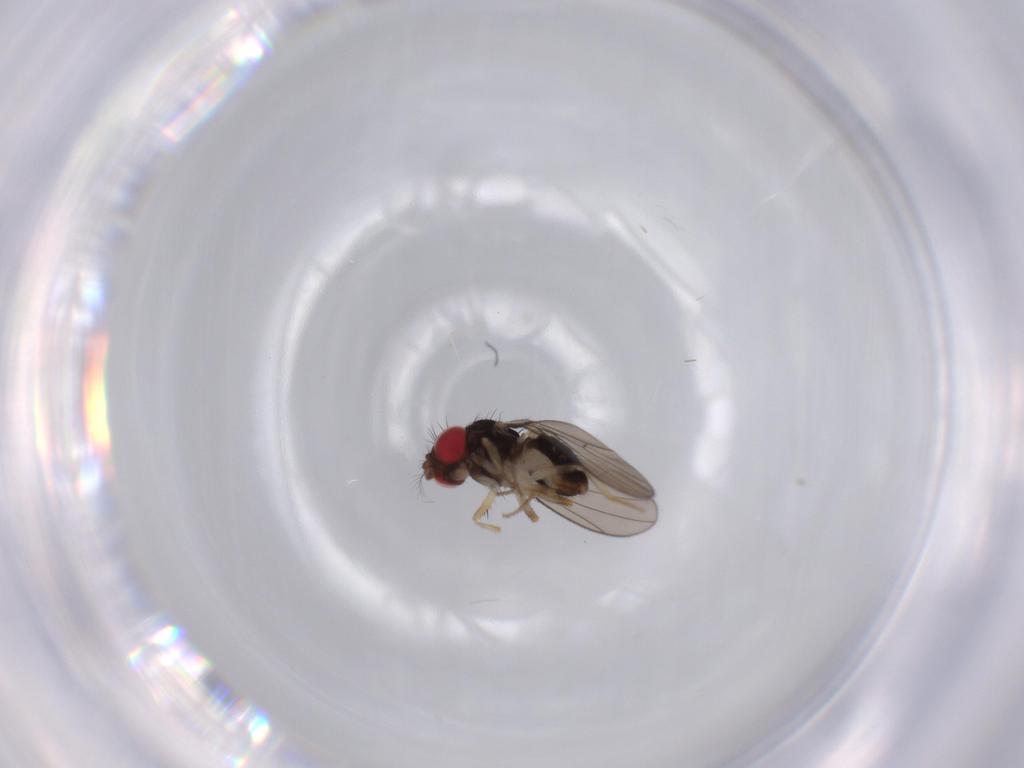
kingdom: Animalia
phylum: Arthropoda
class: Insecta
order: Diptera
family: Drosophilidae
